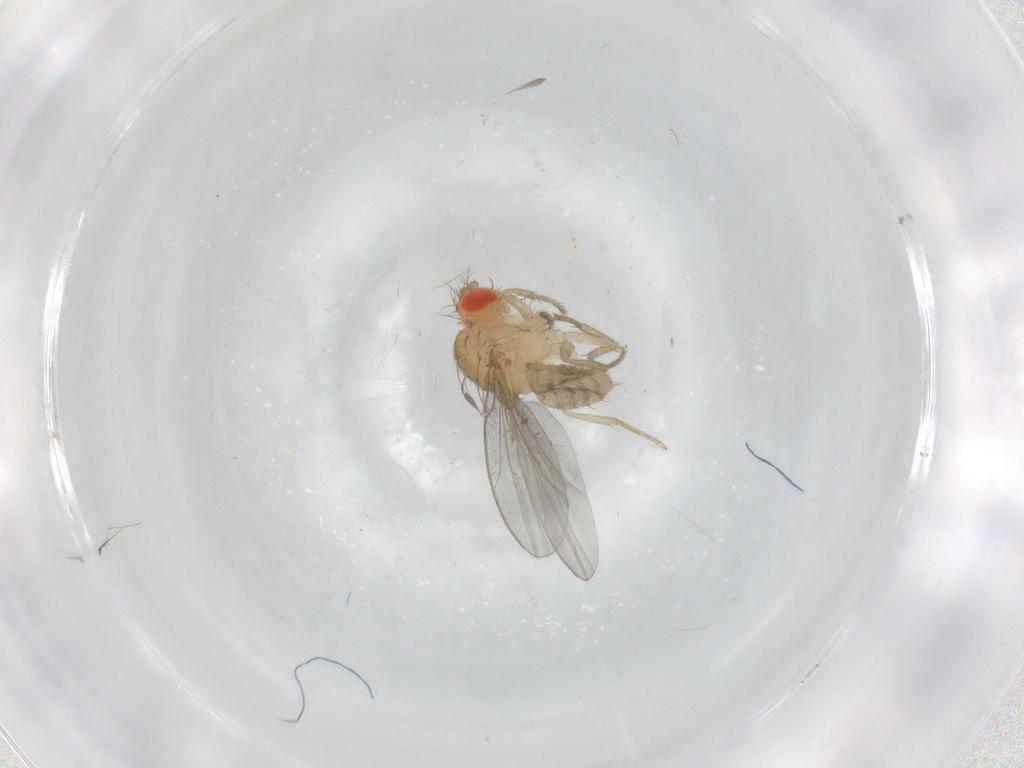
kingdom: Animalia
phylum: Arthropoda
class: Insecta
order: Diptera
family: Drosophilidae
